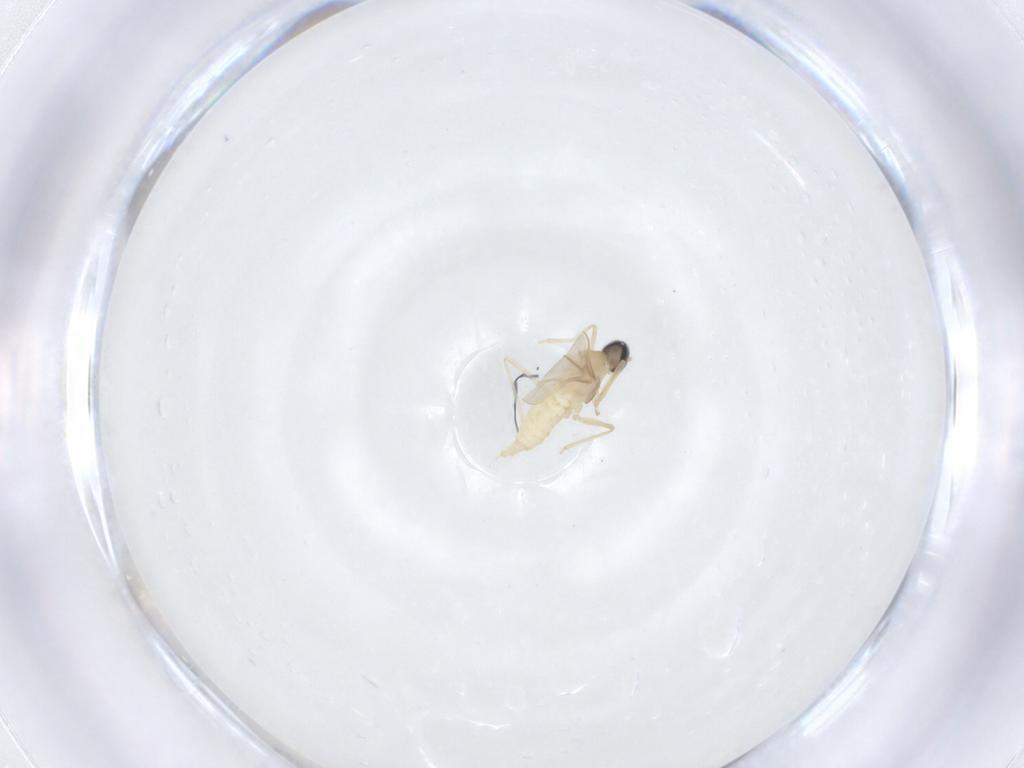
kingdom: Animalia
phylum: Arthropoda
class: Insecta
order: Diptera
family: Cecidomyiidae
